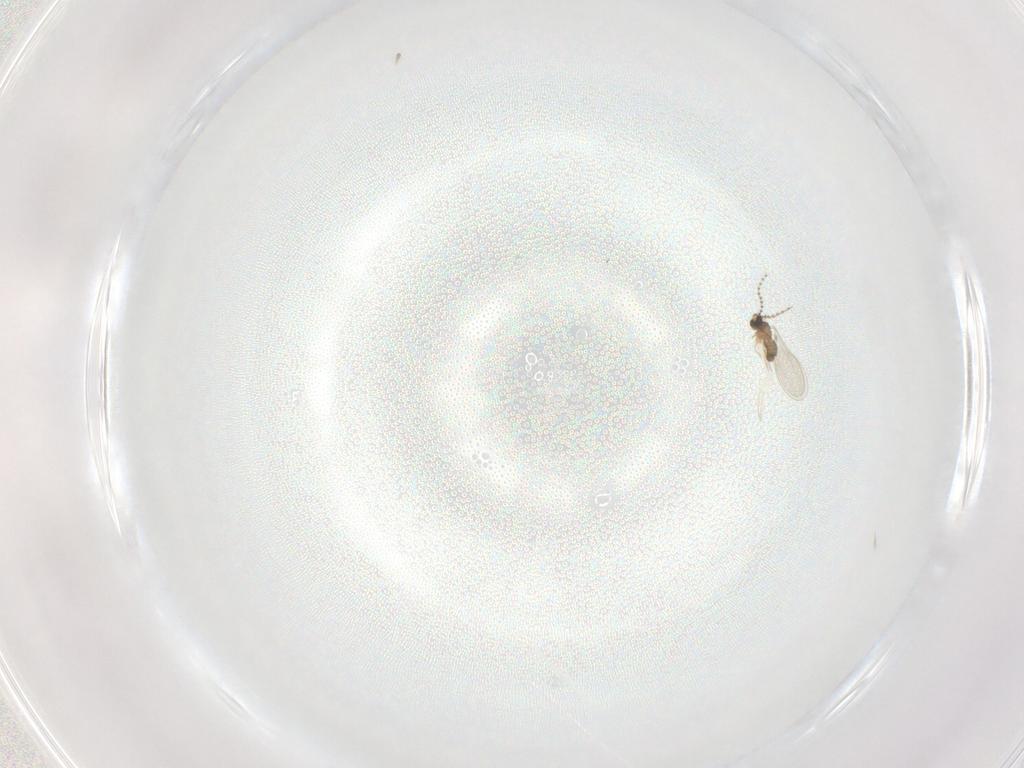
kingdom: Animalia
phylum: Arthropoda
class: Insecta
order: Diptera
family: Cecidomyiidae
